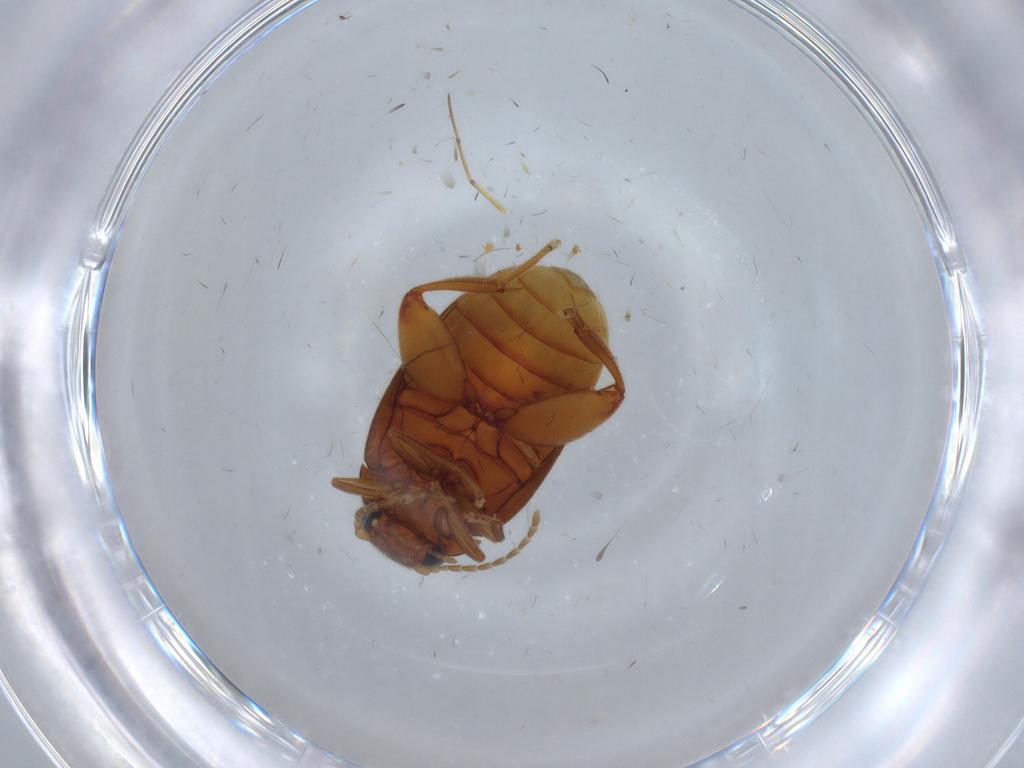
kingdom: Animalia
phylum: Arthropoda
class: Insecta
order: Coleoptera
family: Scirtidae
